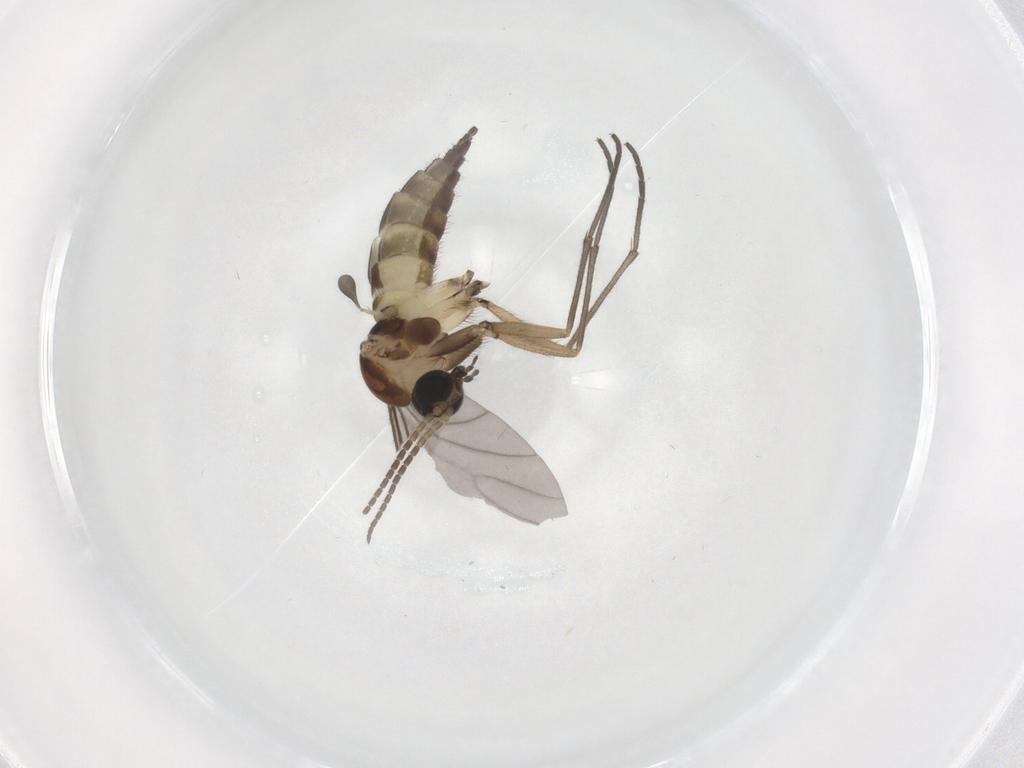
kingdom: Animalia
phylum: Arthropoda
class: Insecta
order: Diptera
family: Sciaridae
